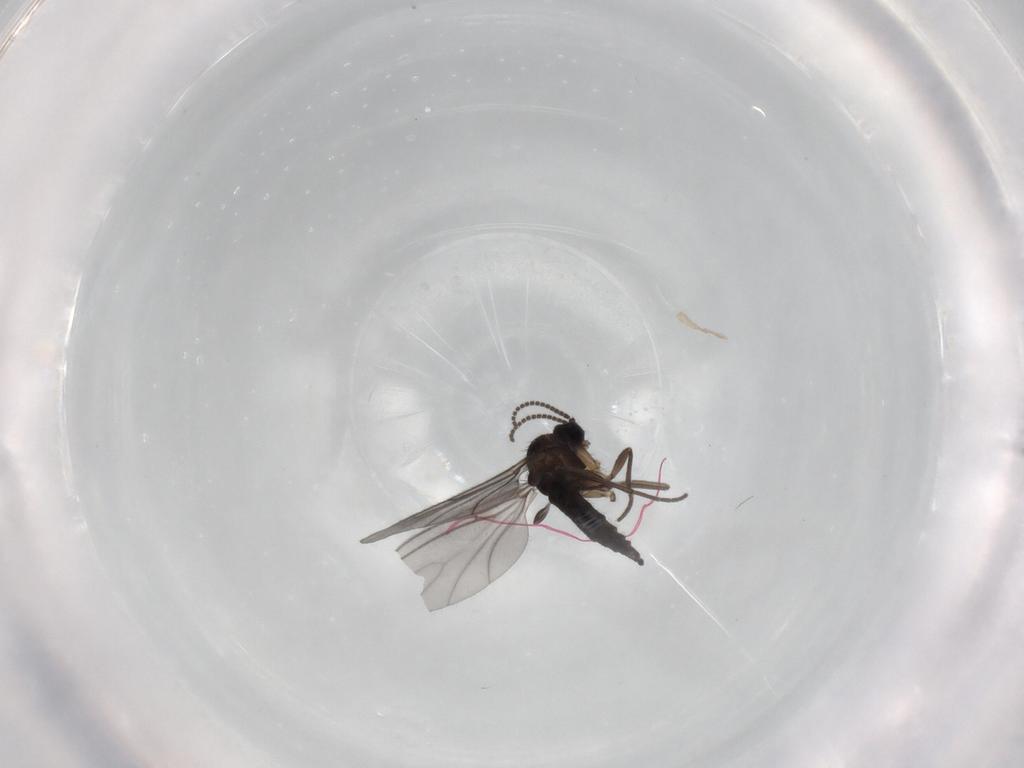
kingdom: Animalia
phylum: Arthropoda
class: Insecta
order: Diptera
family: Sciaridae
